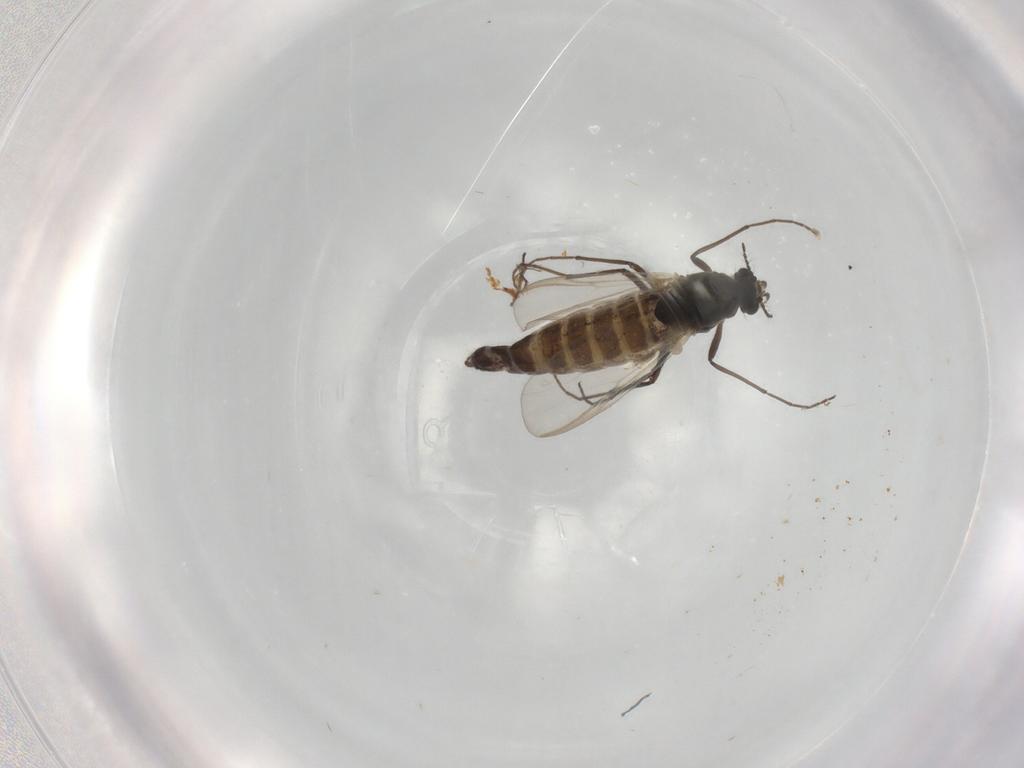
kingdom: Animalia
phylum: Arthropoda
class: Insecta
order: Diptera
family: Chironomidae
